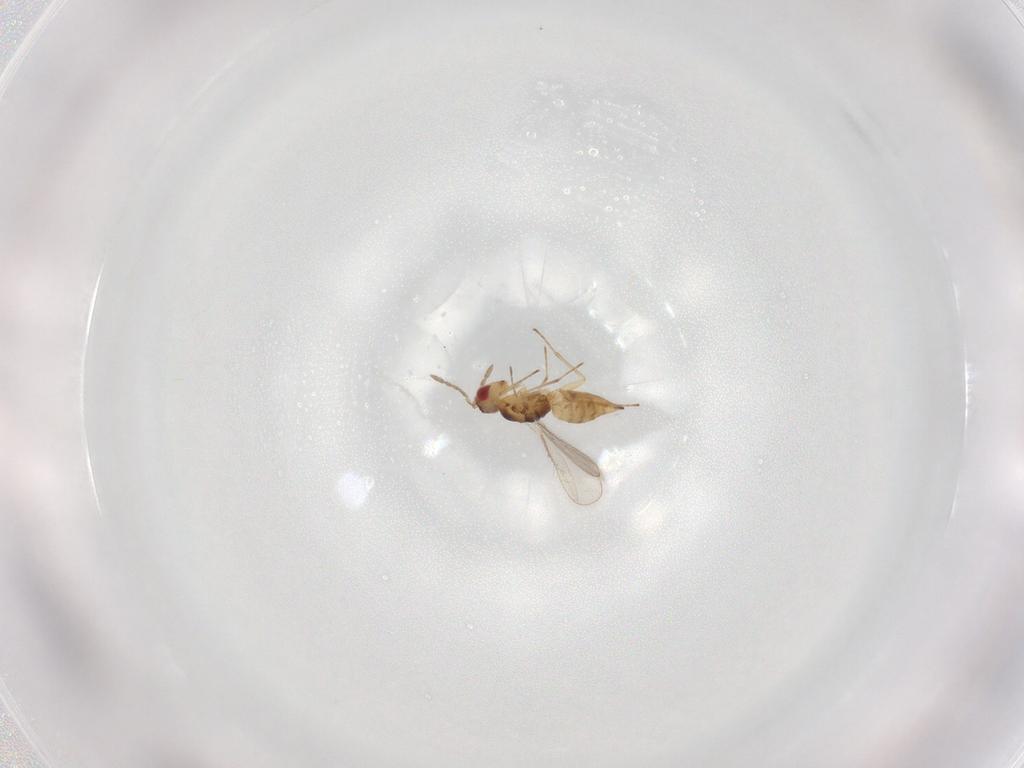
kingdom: Animalia
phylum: Arthropoda
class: Insecta
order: Hymenoptera
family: Eulophidae
